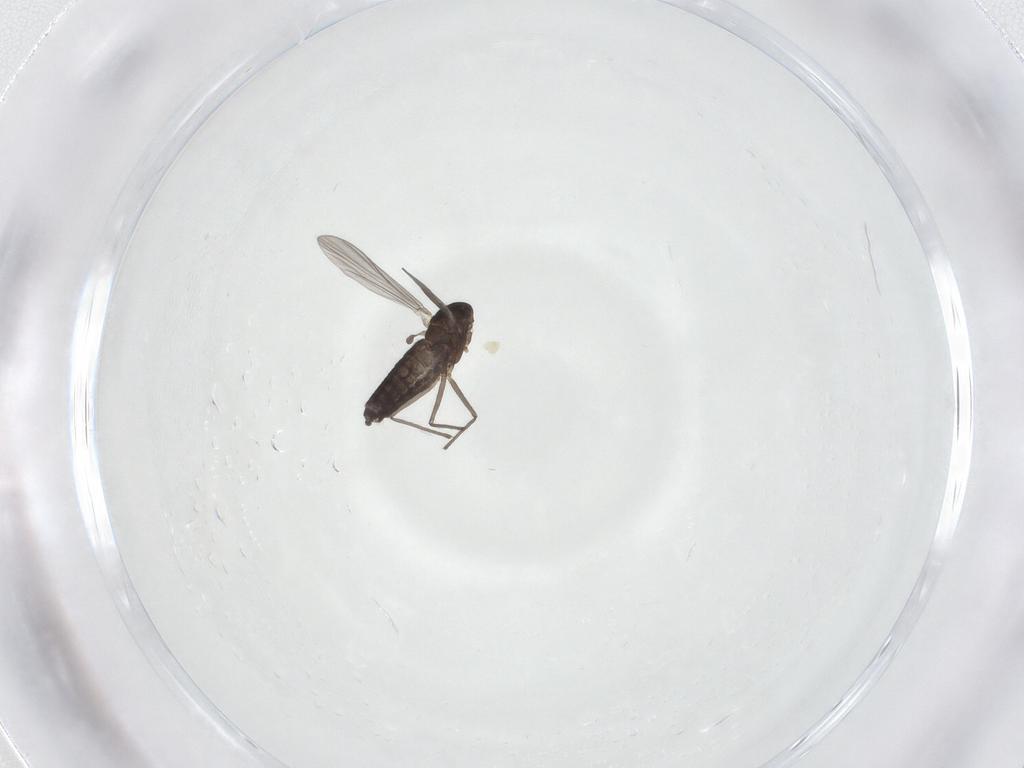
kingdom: Animalia
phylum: Arthropoda
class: Insecta
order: Diptera
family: Chironomidae
